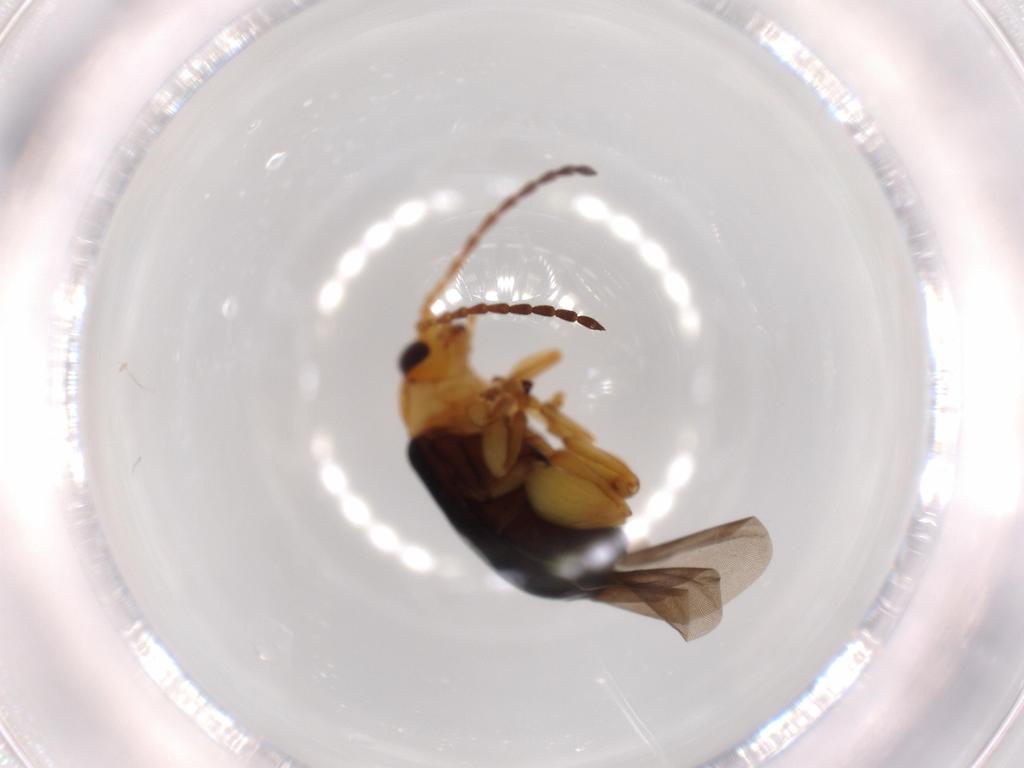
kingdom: Animalia
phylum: Arthropoda
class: Insecta
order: Coleoptera
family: Chrysomelidae
